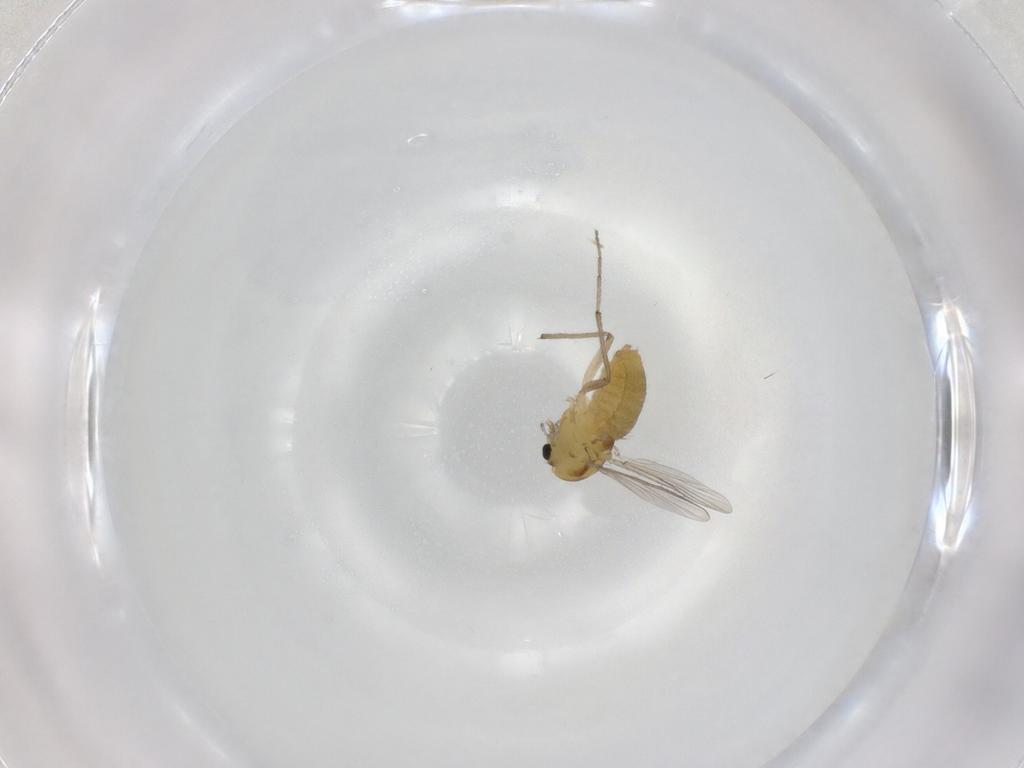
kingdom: Animalia
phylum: Arthropoda
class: Insecta
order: Diptera
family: Chironomidae
